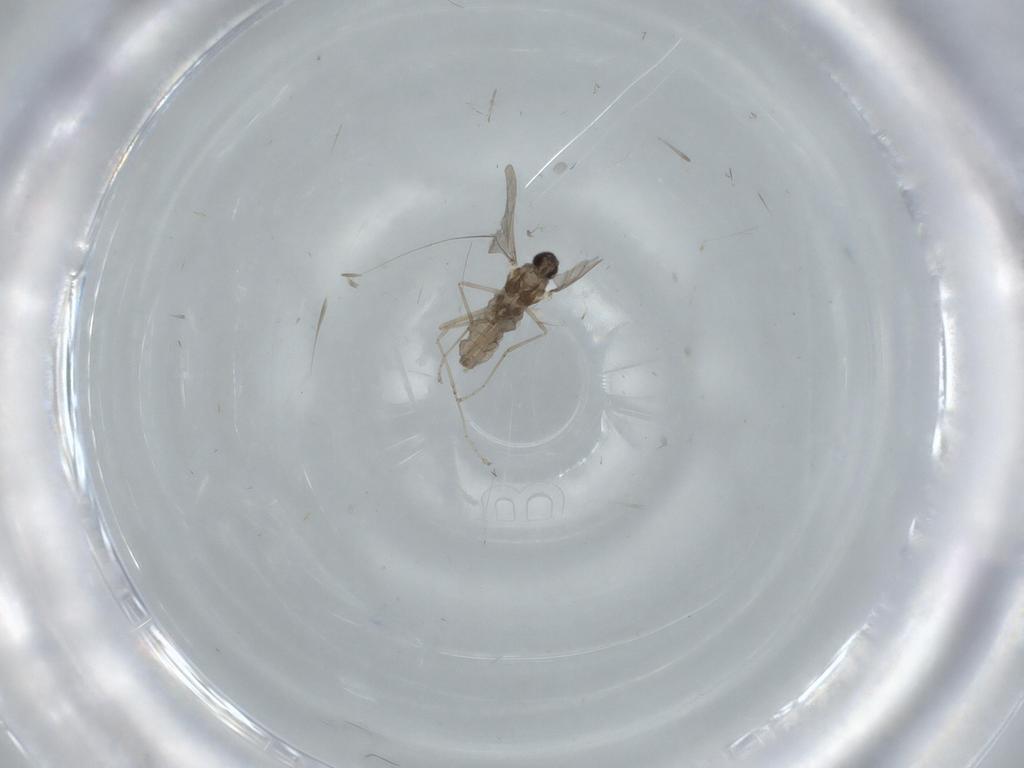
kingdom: Animalia
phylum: Arthropoda
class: Insecta
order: Diptera
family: Cecidomyiidae
